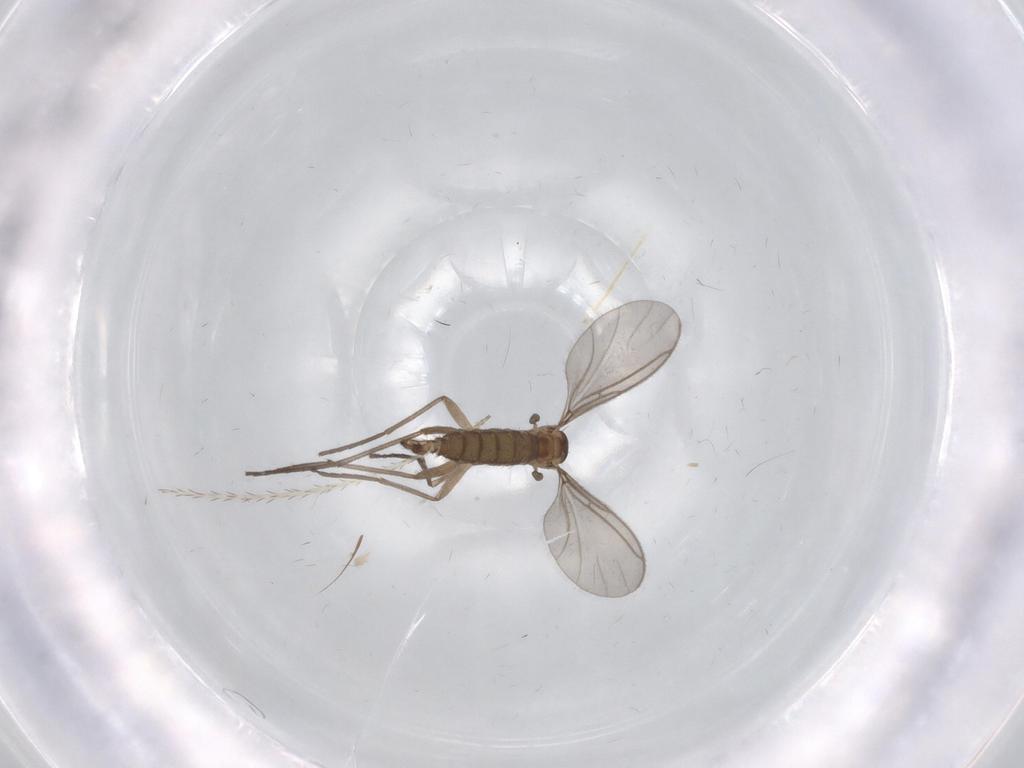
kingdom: Animalia
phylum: Arthropoda
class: Insecta
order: Diptera
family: Sciaridae
